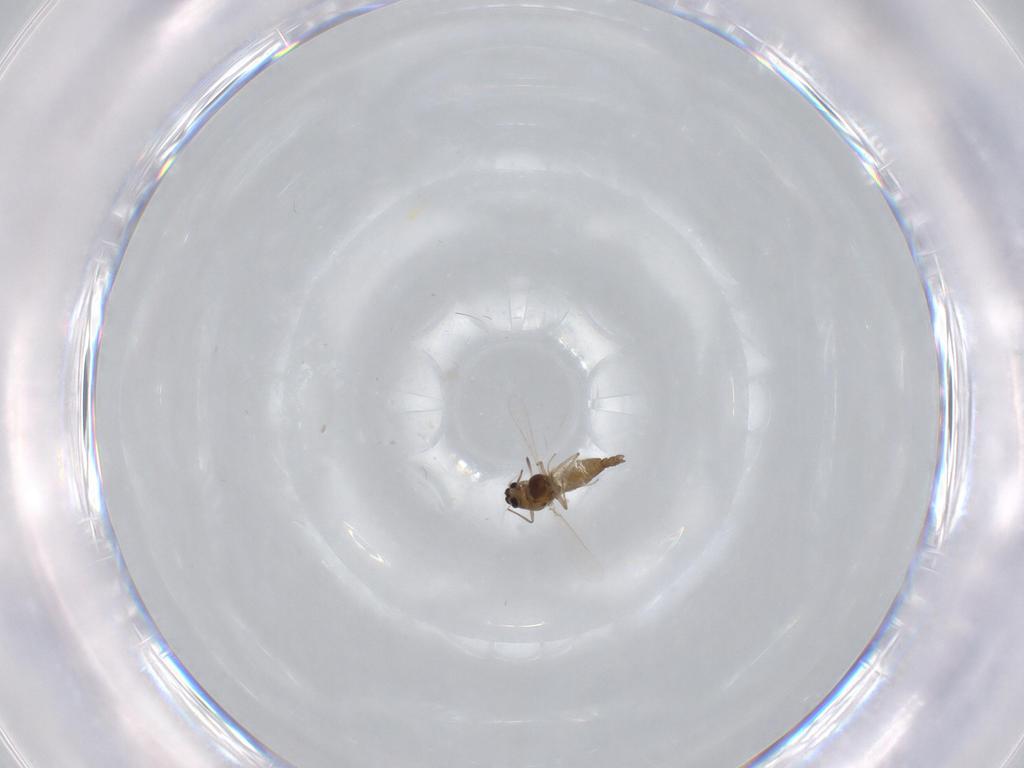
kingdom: Animalia
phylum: Arthropoda
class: Insecta
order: Diptera
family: Chironomidae
